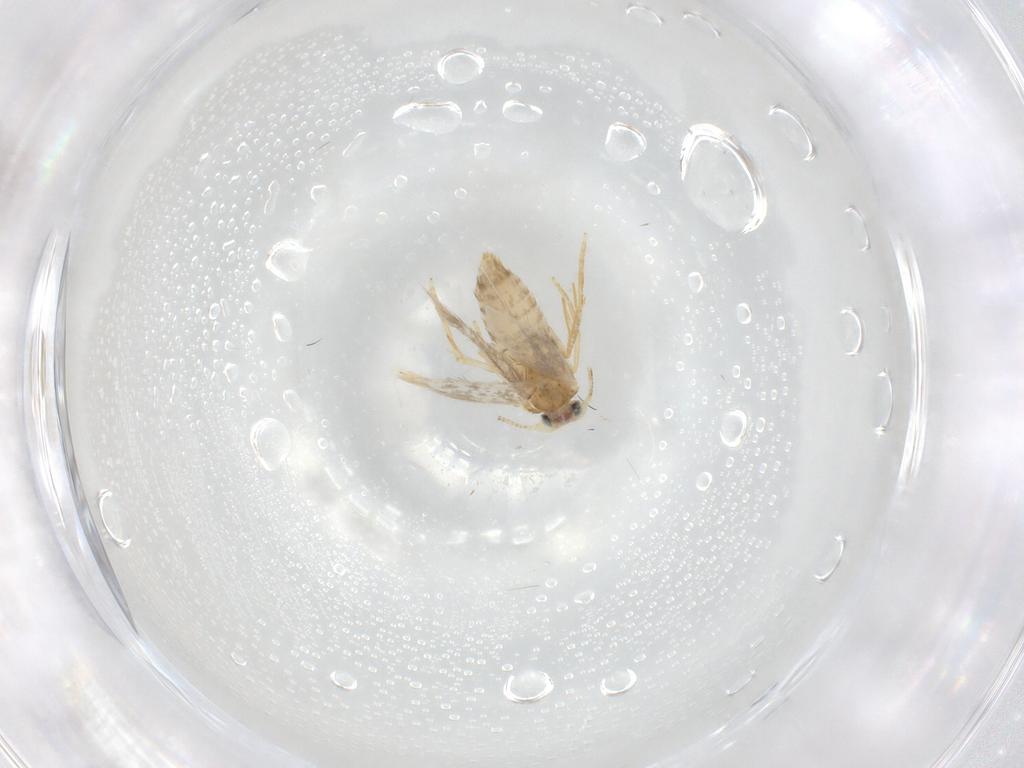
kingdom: Animalia
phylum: Arthropoda
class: Insecta
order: Lepidoptera
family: Nepticulidae
